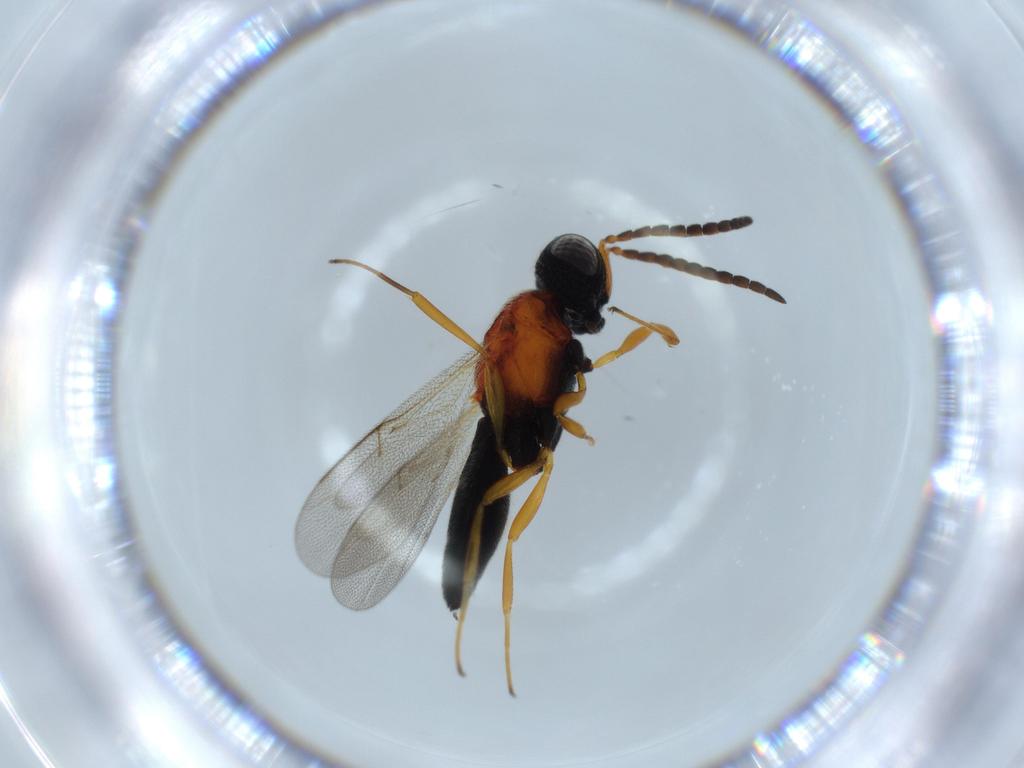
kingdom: Animalia
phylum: Arthropoda
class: Insecta
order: Hymenoptera
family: Scelionidae
